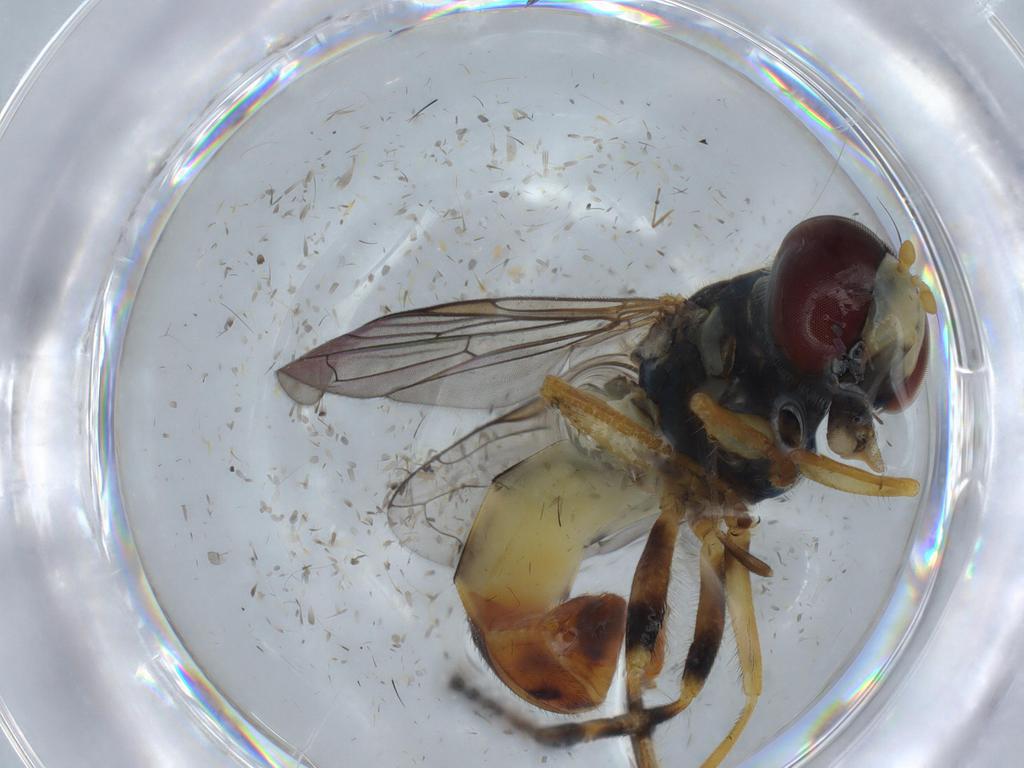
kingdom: Animalia
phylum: Arthropoda
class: Insecta
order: Diptera
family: Syrphidae
